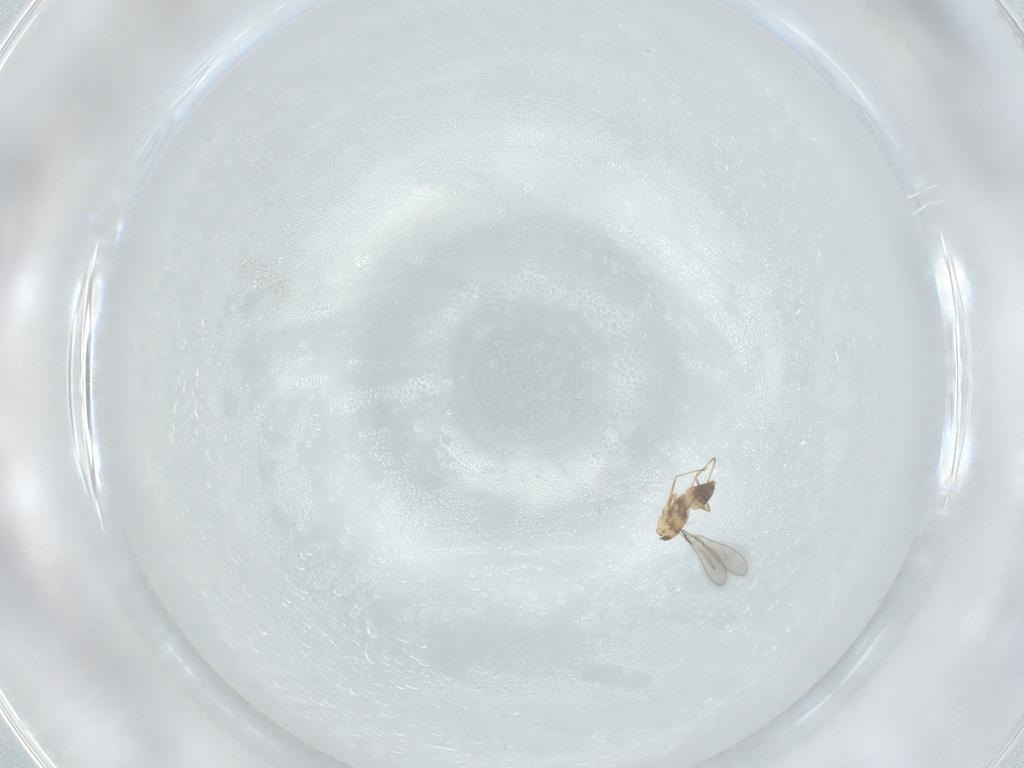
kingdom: Animalia
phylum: Arthropoda
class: Insecta
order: Hymenoptera
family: Mymaridae
